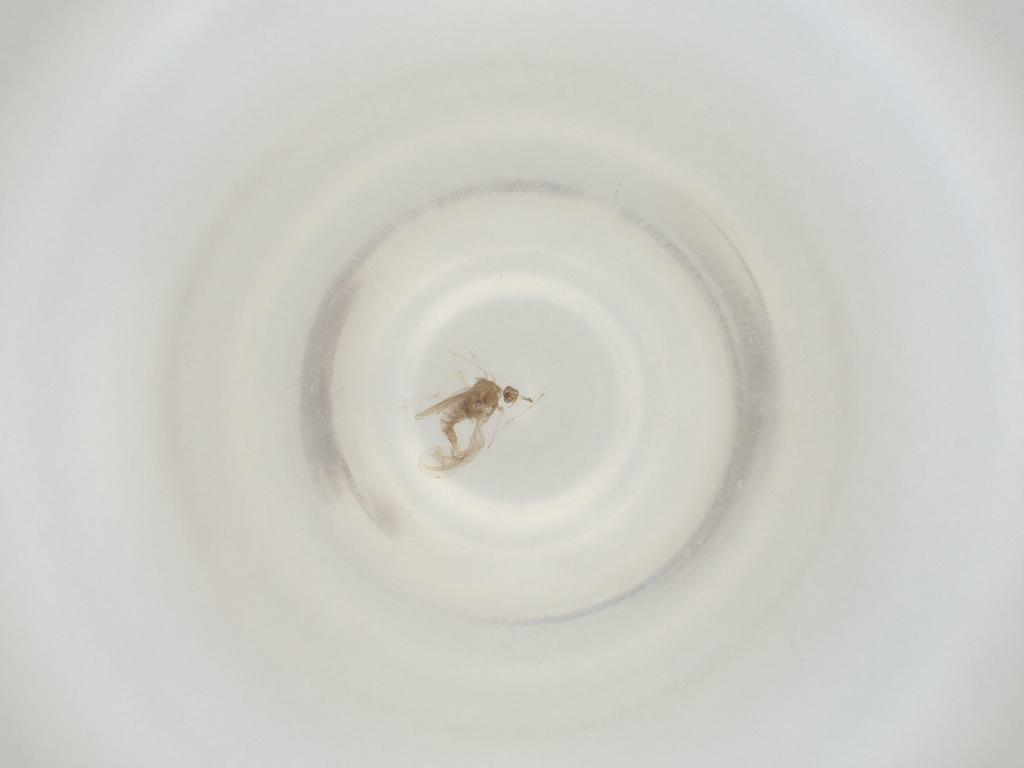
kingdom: Animalia
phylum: Arthropoda
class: Insecta
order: Diptera
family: Cecidomyiidae
